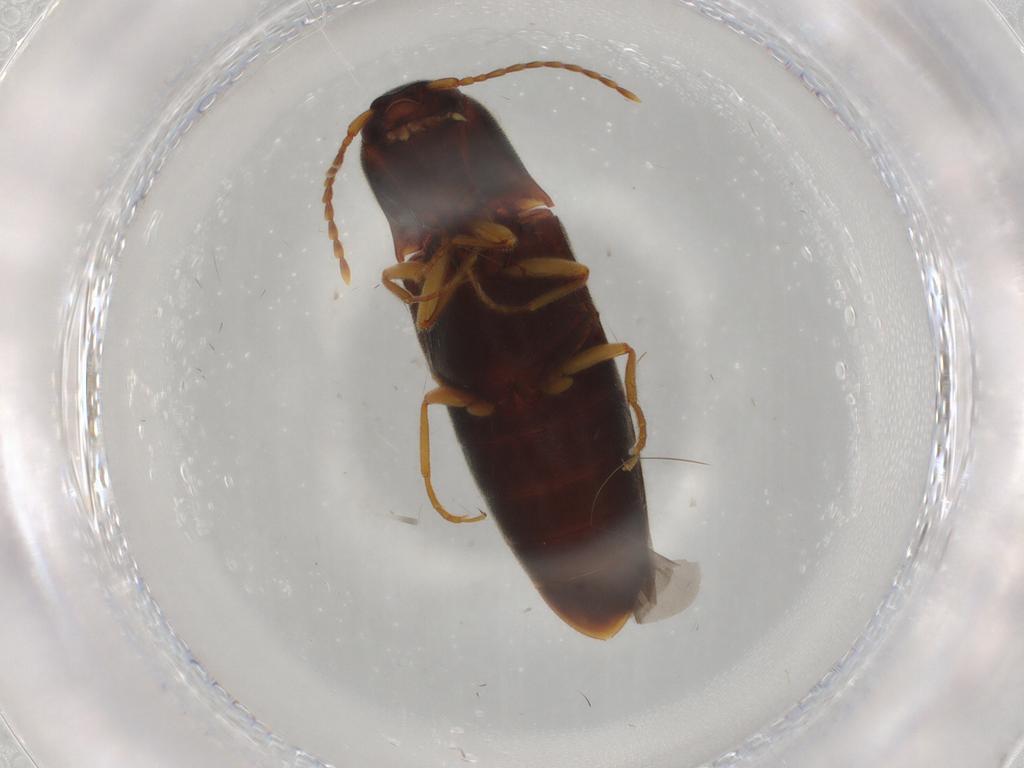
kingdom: Animalia
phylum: Arthropoda
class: Insecta
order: Coleoptera
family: Elateridae
